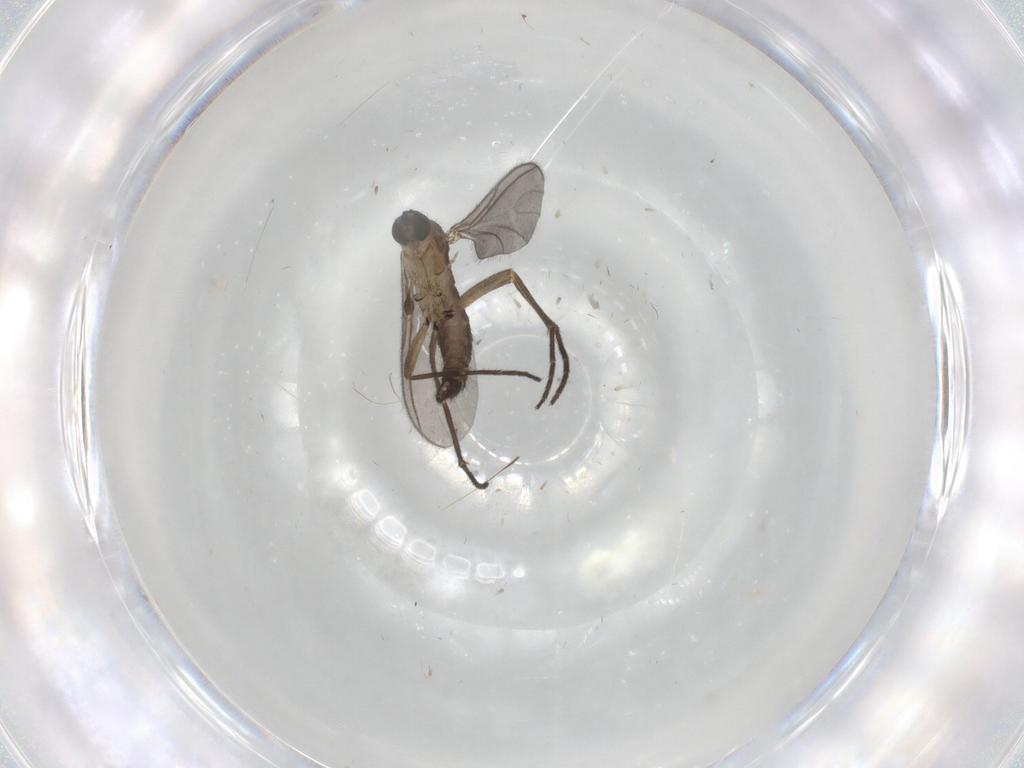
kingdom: Animalia
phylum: Arthropoda
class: Insecta
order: Diptera
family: Sciaridae
